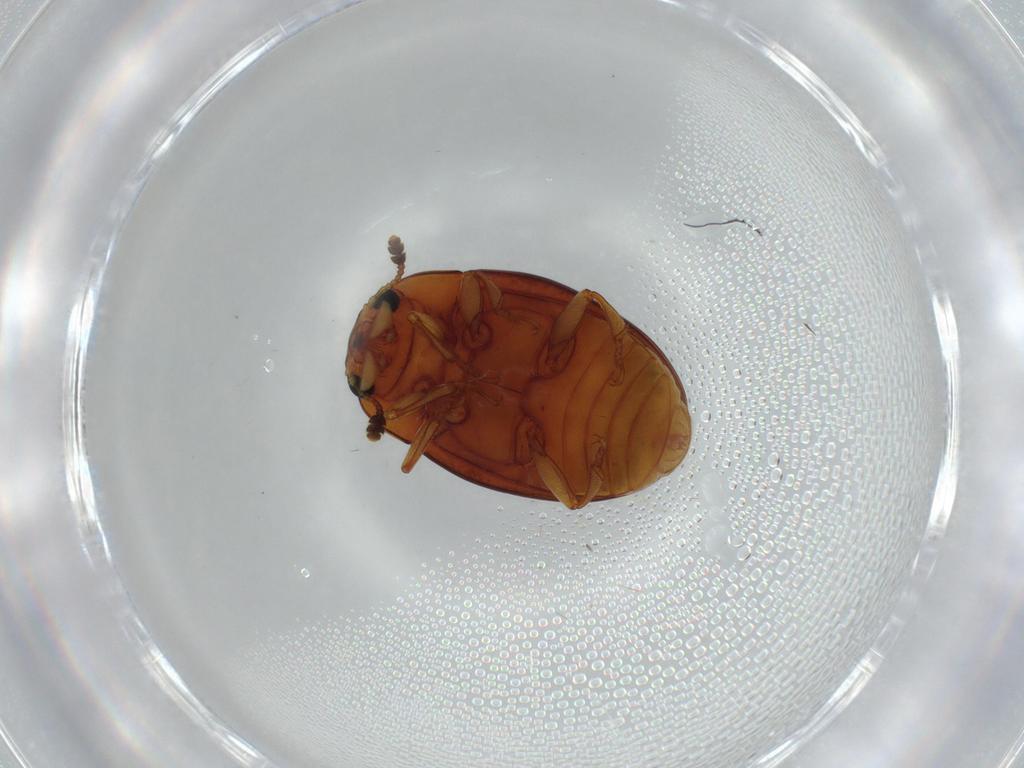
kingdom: Animalia
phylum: Arthropoda
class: Insecta
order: Coleoptera
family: Erotylidae
